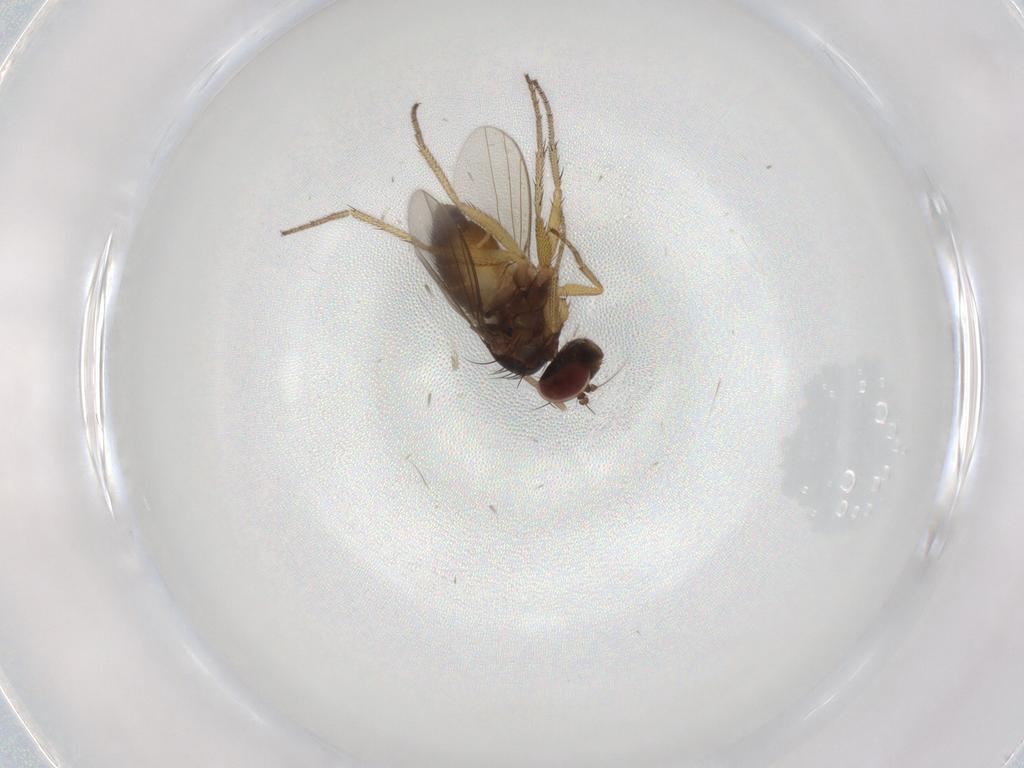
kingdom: Animalia
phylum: Arthropoda
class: Insecta
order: Diptera
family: Chironomidae
